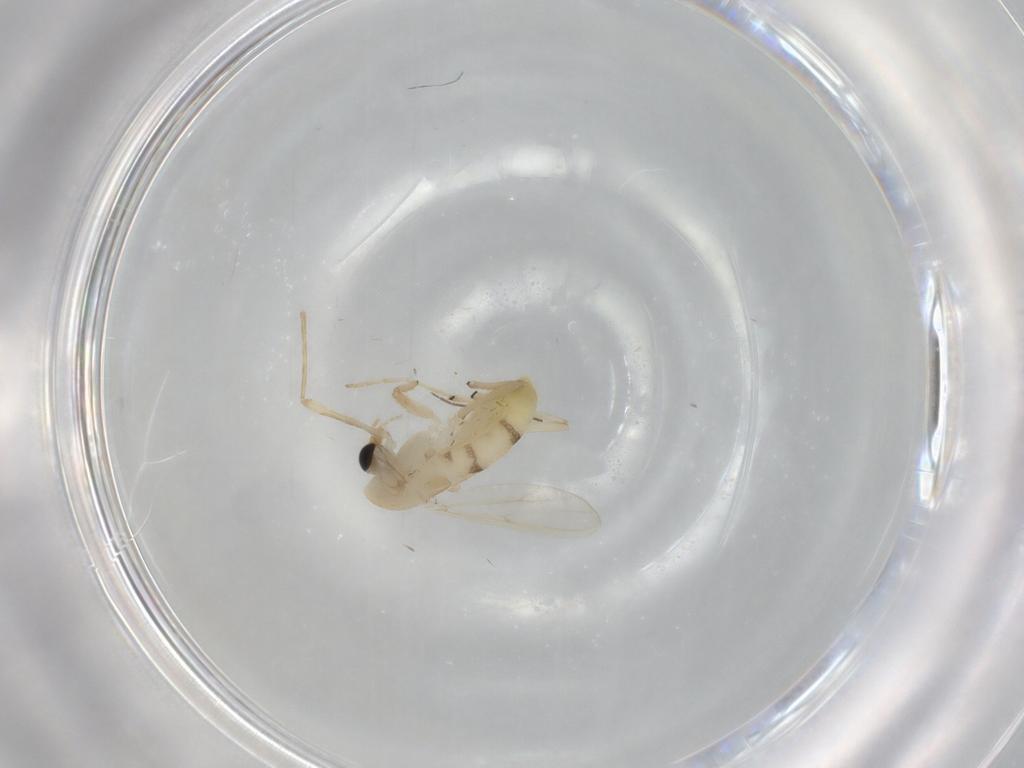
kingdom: Animalia
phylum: Arthropoda
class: Insecta
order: Diptera
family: Chironomidae
